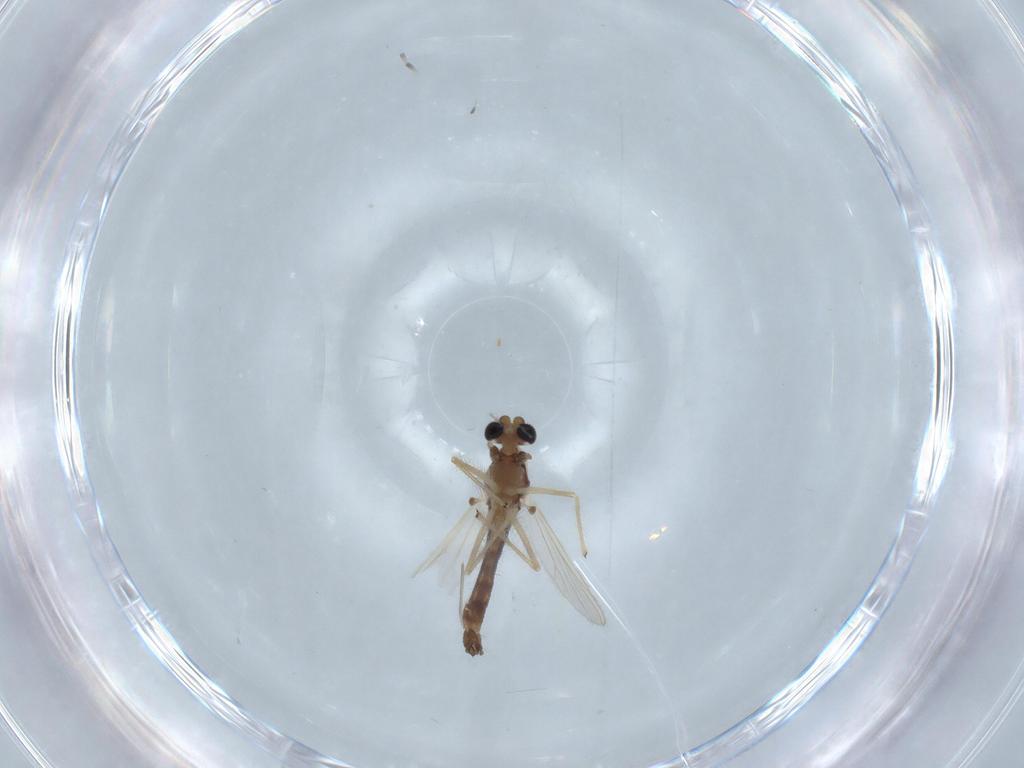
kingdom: Animalia
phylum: Arthropoda
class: Insecta
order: Diptera
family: Chironomidae
